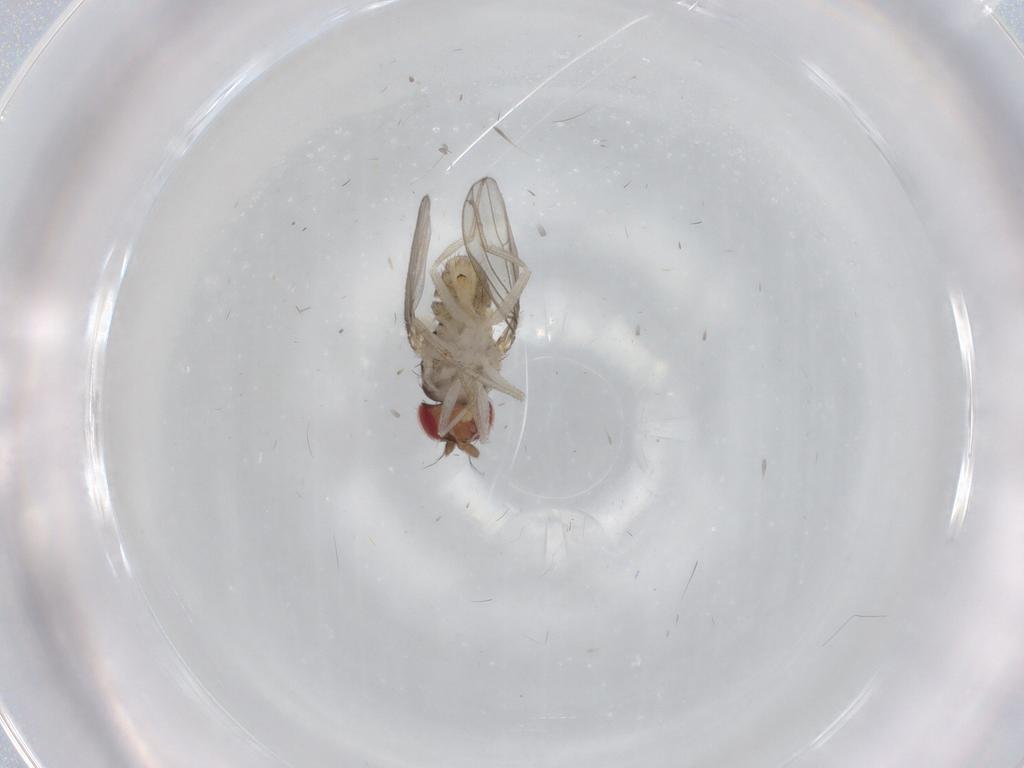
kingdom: Animalia
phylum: Arthropoda
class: Insecta
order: Diptera
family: Drosophilidae
